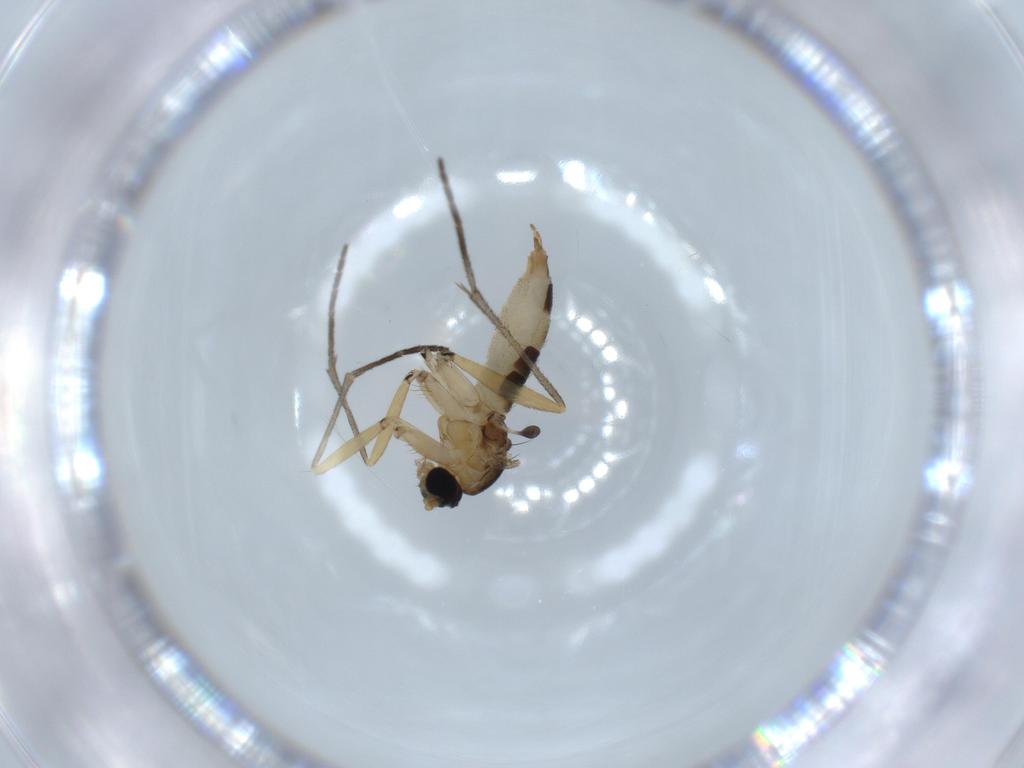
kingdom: Animalia
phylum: Arthropoda
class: Insecta
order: Diptera
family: Sciaridae
